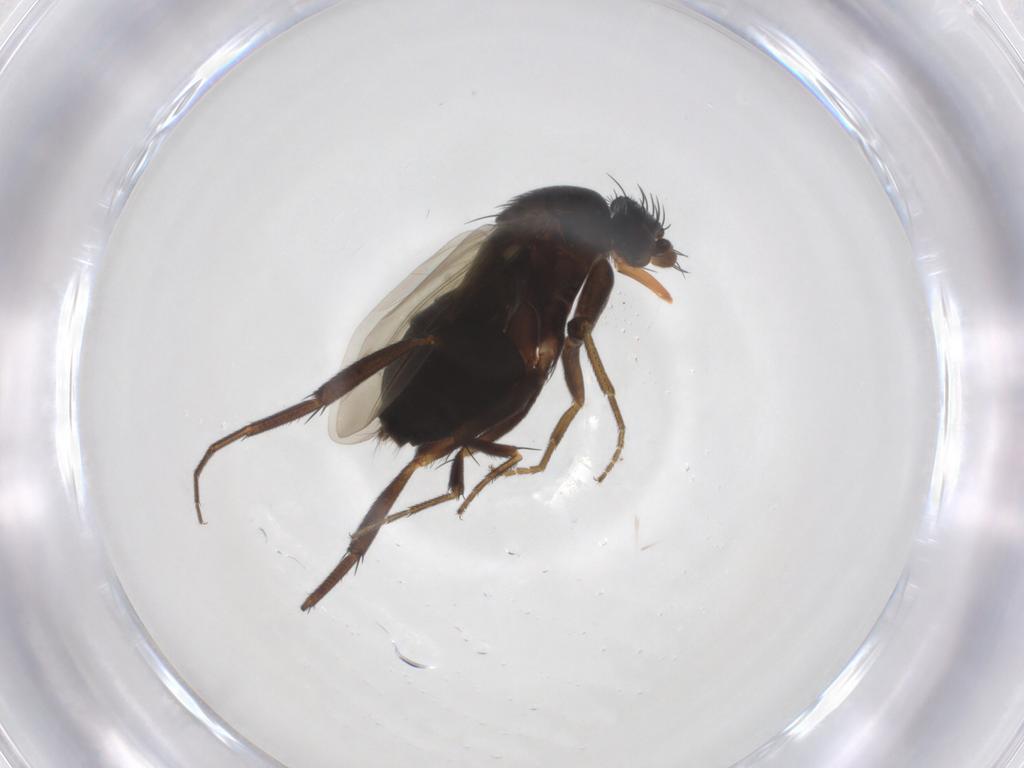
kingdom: Animalia
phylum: Arthropoda
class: Insecta
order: Diptera
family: Phoridae
